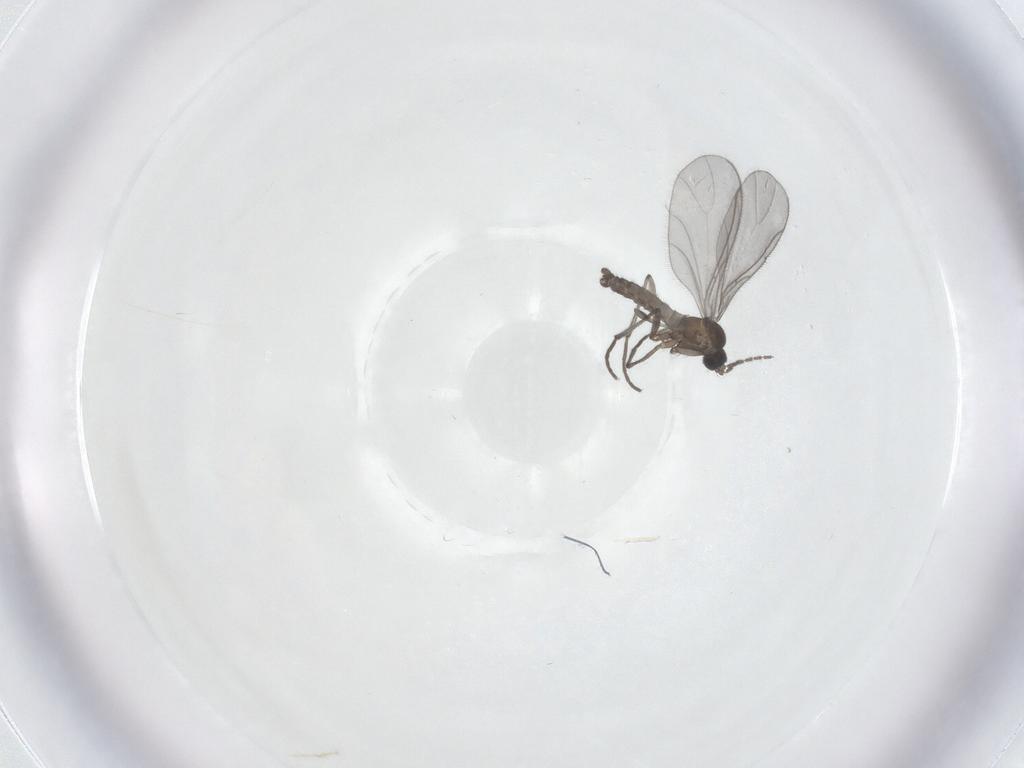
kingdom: Animalia
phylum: Arthropoda
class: Insecta
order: Diptera
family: Sciaridae
